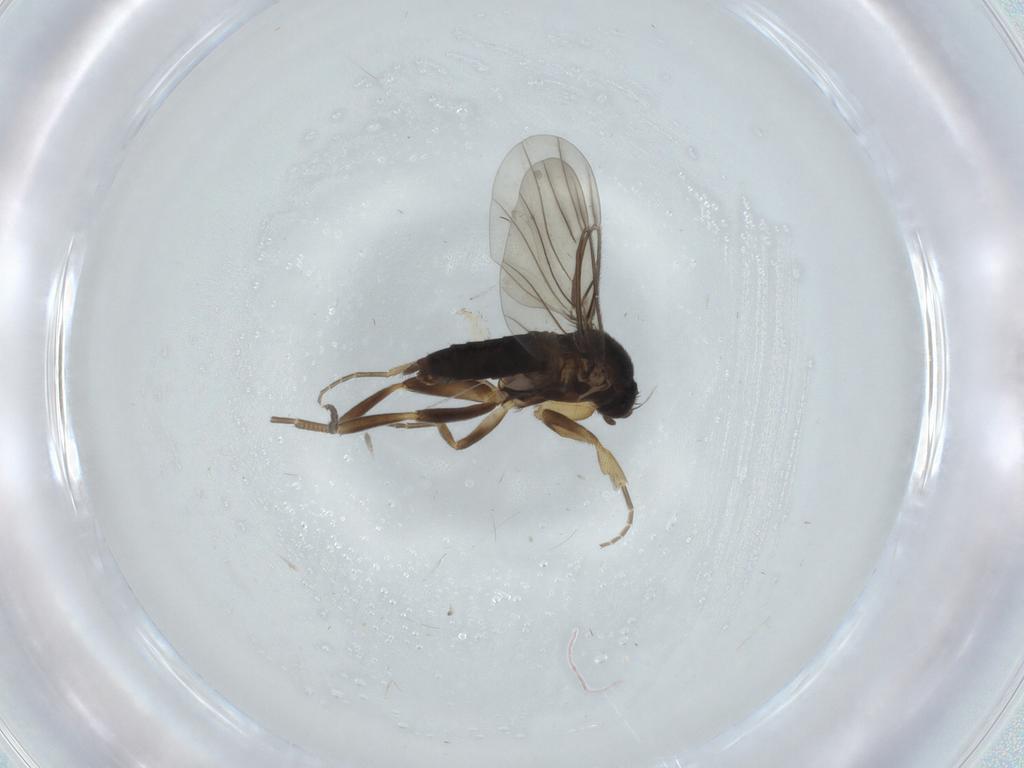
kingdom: Animalia
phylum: Arthropoda
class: Insecta
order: Diptera
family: Phoridae
